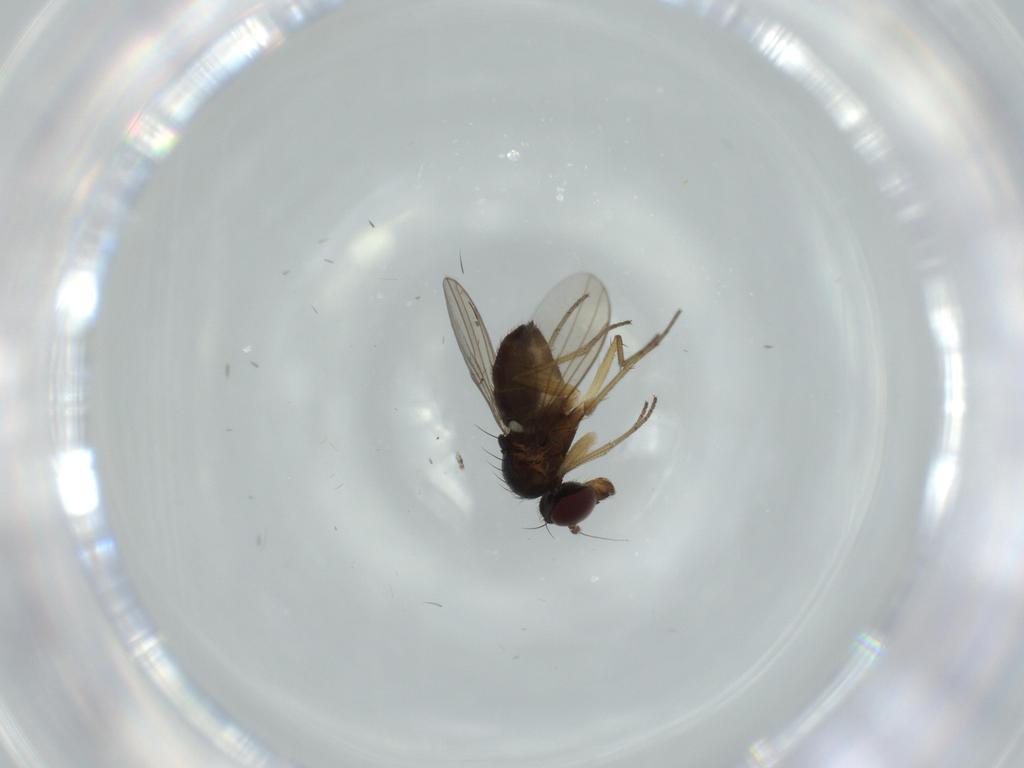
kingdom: Animalia
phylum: Arthropoda
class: Insecta
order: Diptera
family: Dolichopodidae
